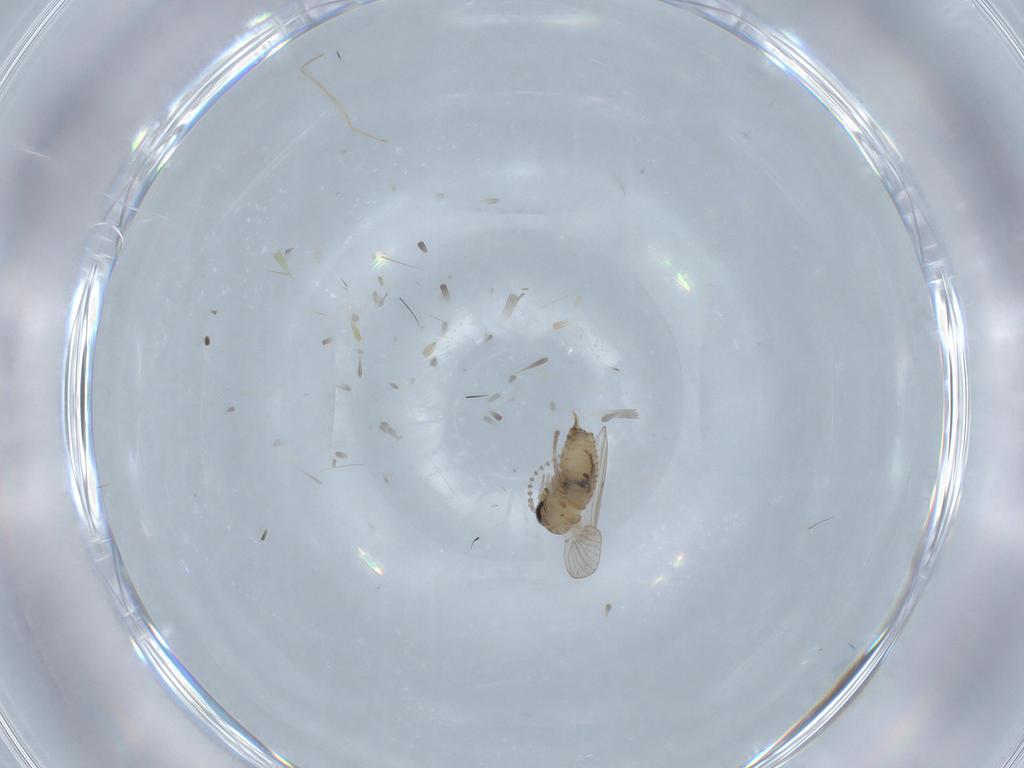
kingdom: Animalia
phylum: Arthropoda
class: Insecta
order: Diptera
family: Psychodidae
